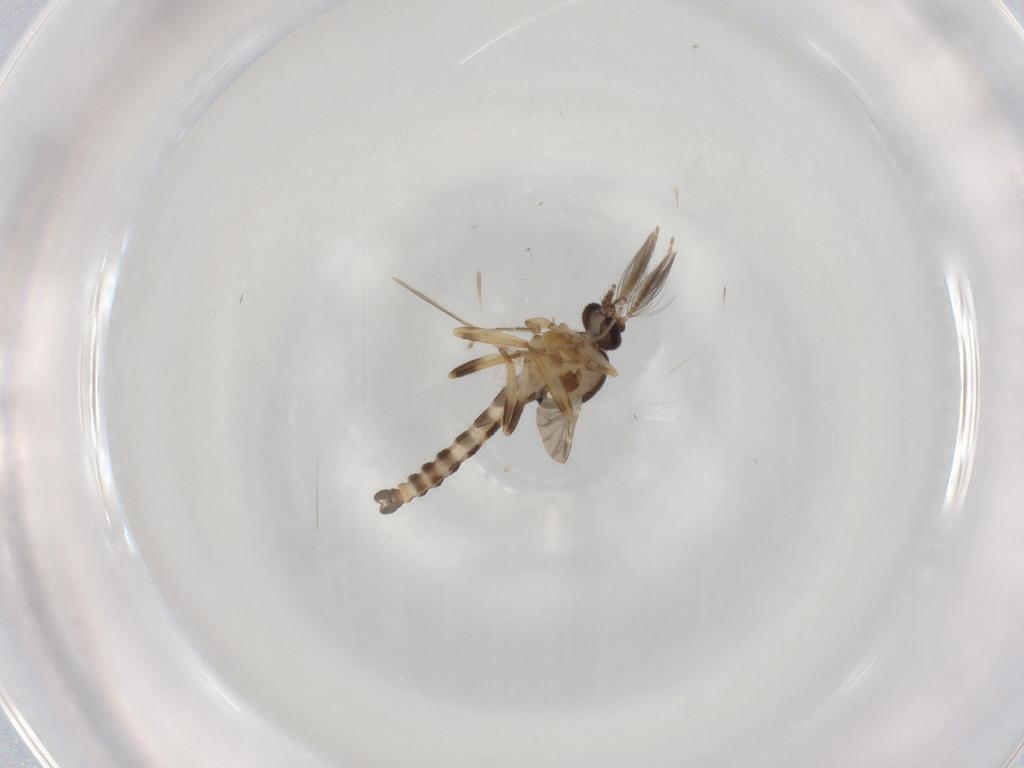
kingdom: Animalia
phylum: Arthropoda
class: Insecta
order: Diptera
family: Ceratopogonidae
